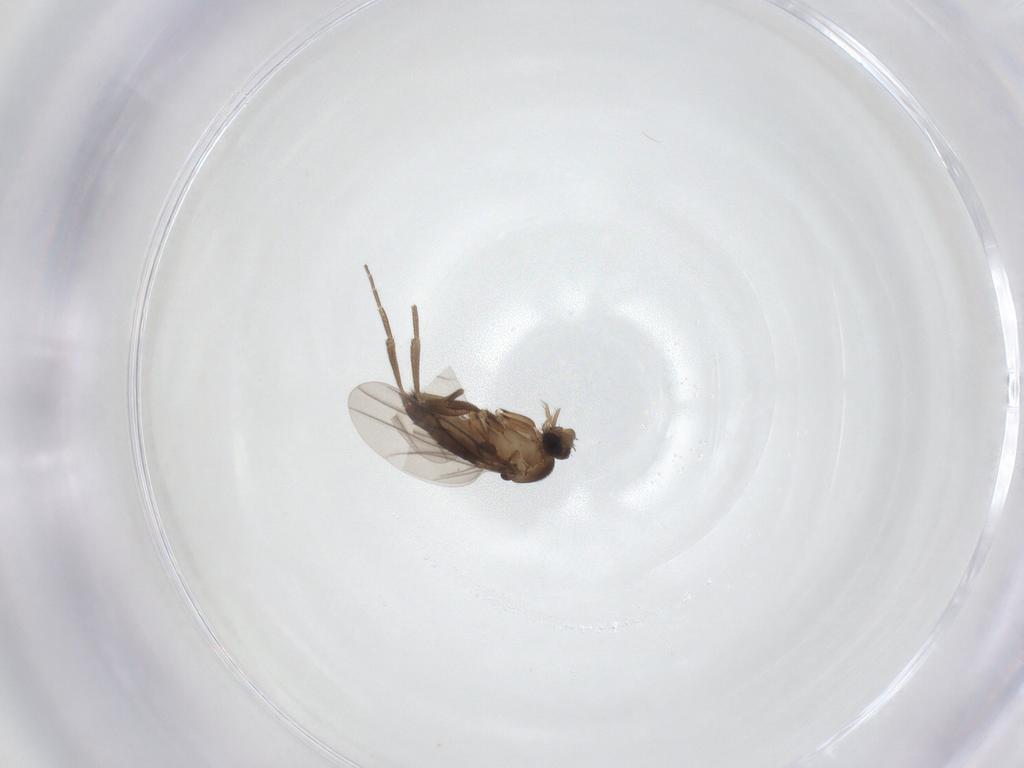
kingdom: Animalia
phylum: Arthropoda
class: Insecta
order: Diptera
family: Phoridae
